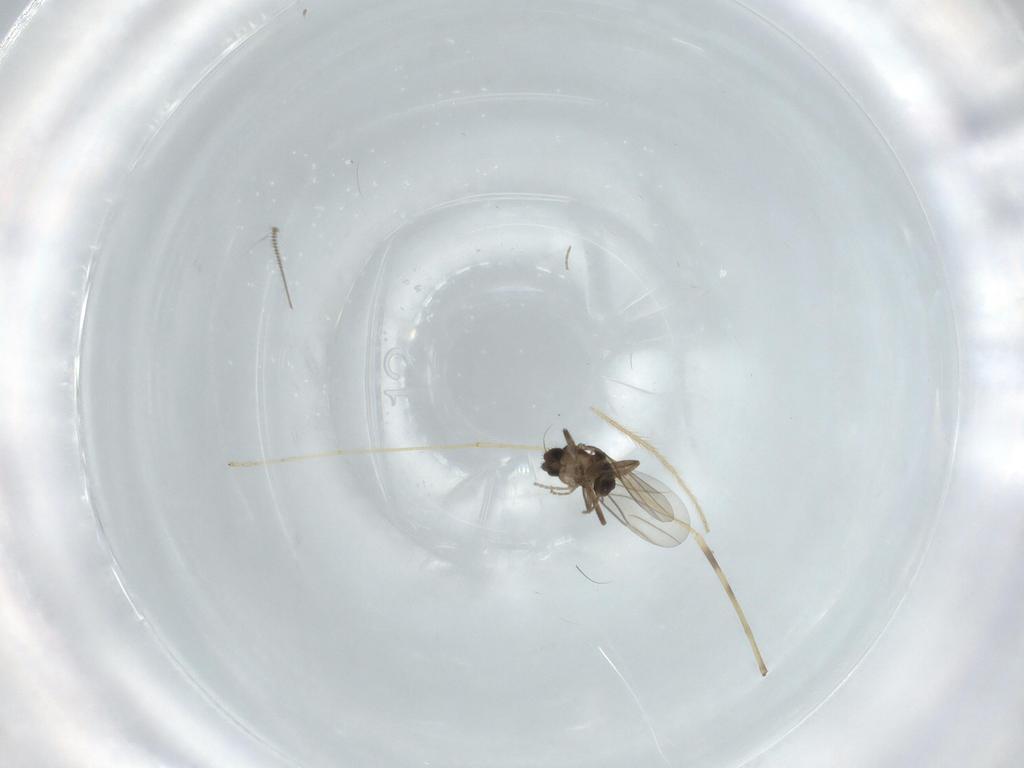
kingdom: Animalia
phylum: Arthropoda
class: Insecta
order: Diptera
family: Phoridae
